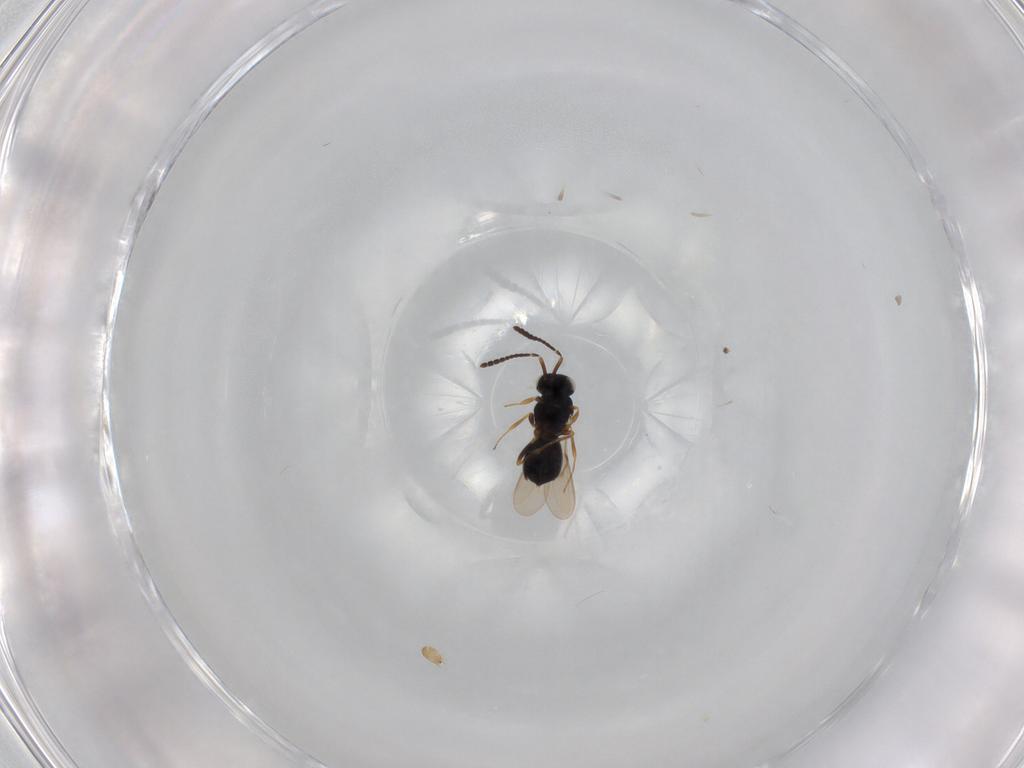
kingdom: Animalia
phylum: Arthropoda
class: Insecta
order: Hymenoptera
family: Scelionidae
